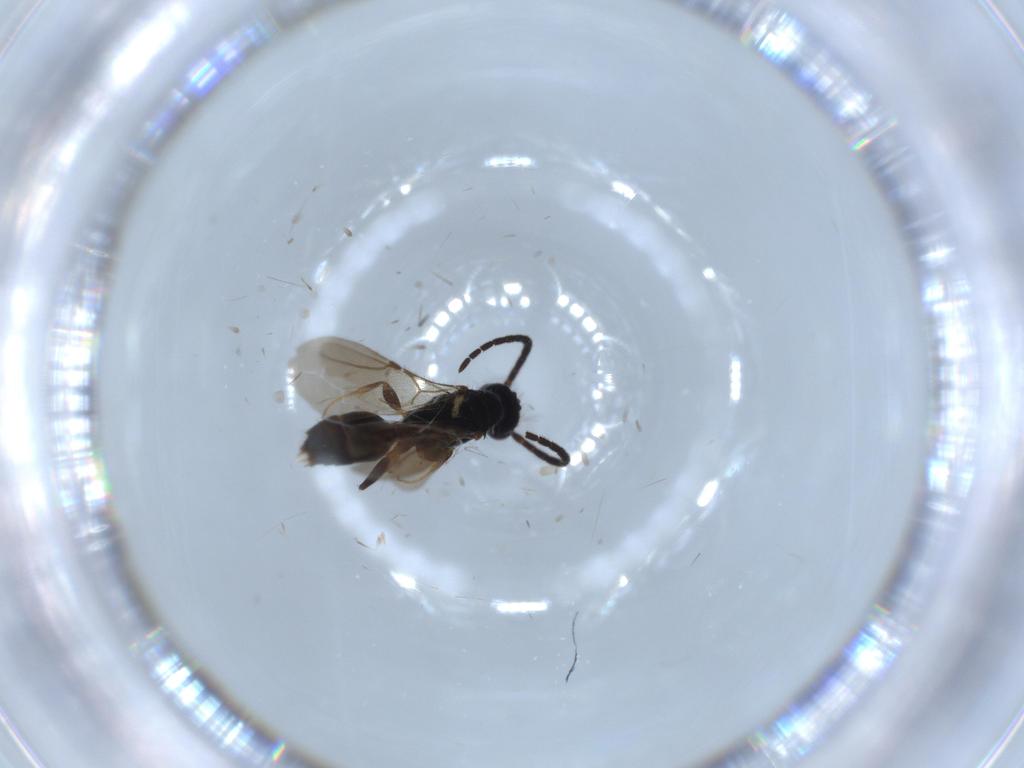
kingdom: Animalia
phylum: Arthropoda
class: Insecta
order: Hymenoptera
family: Bethylidae
